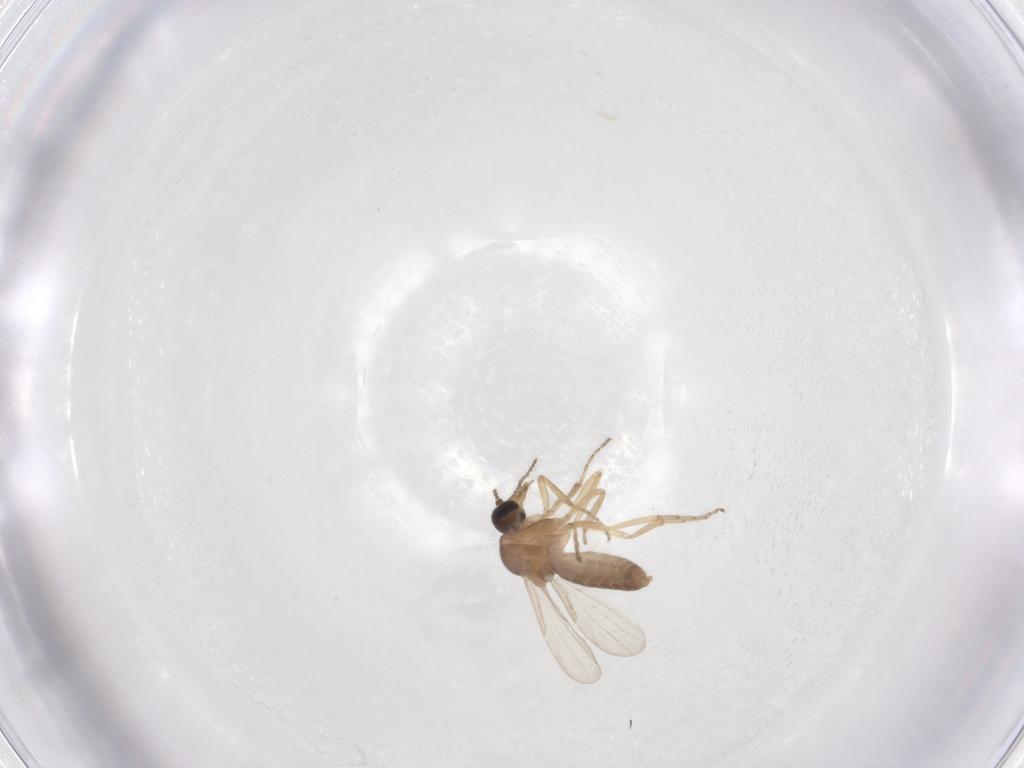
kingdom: Animalia
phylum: Arthropoda
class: Insecta
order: Diptera
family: Ceratopogonidae
